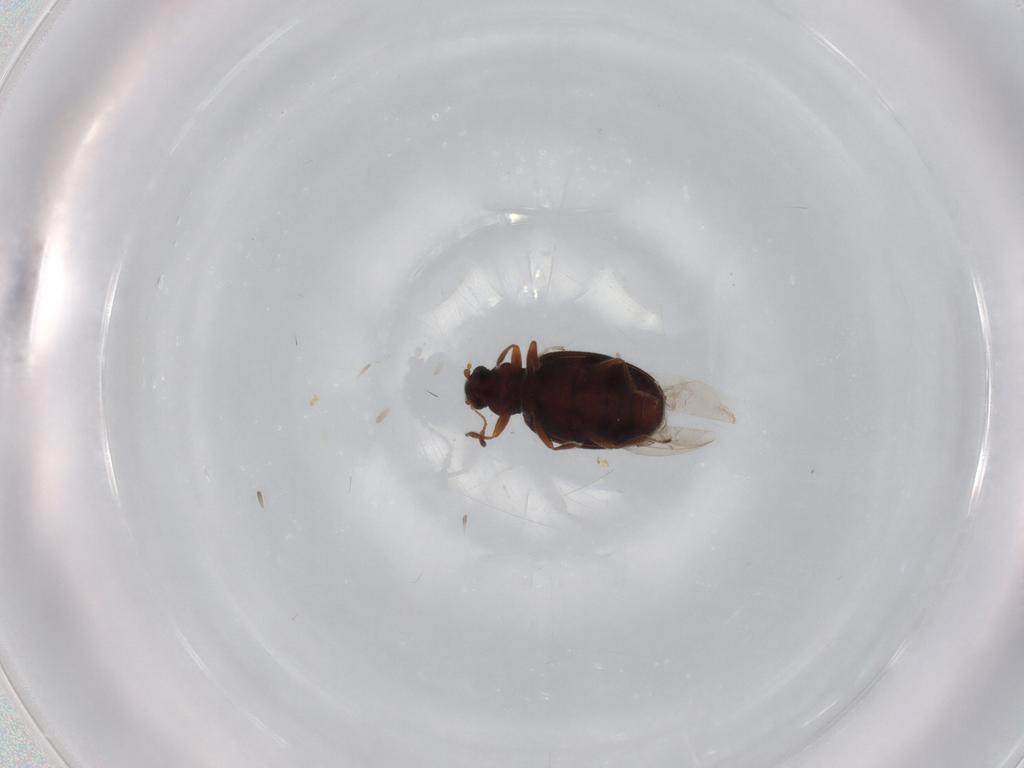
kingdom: Animalia
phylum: Arthropoda
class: Insecta
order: Coleoptera
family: Latridiidae
